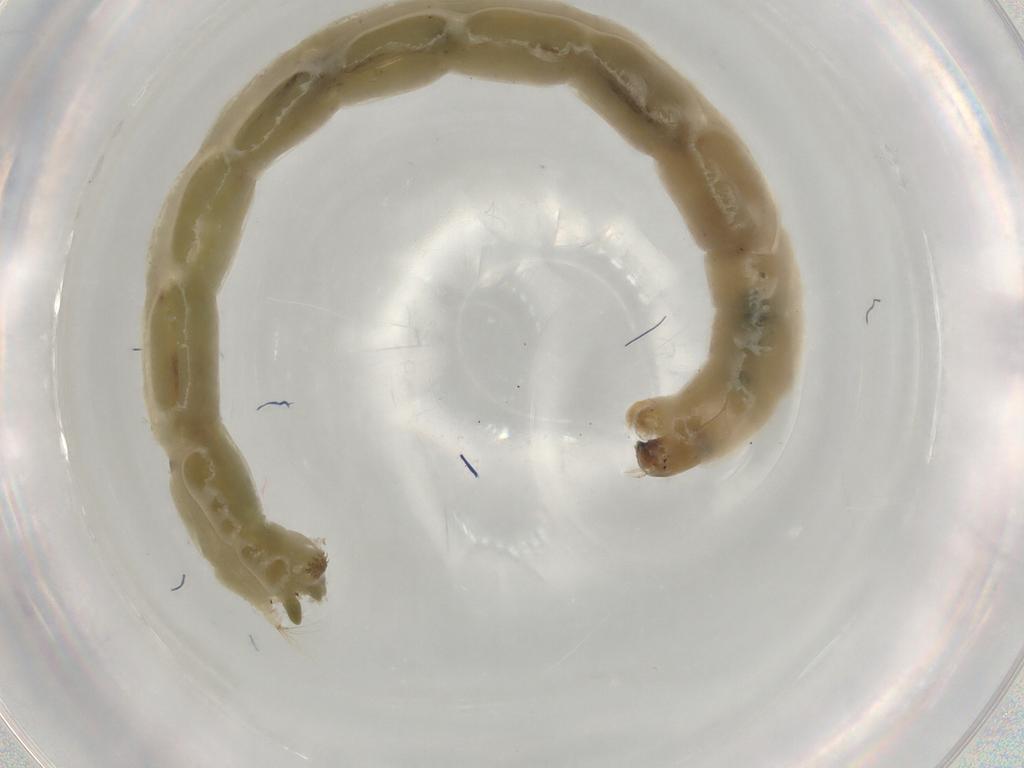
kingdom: Animalia
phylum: Arthropoda
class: Insecta
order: Diptera
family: Chironomidae
